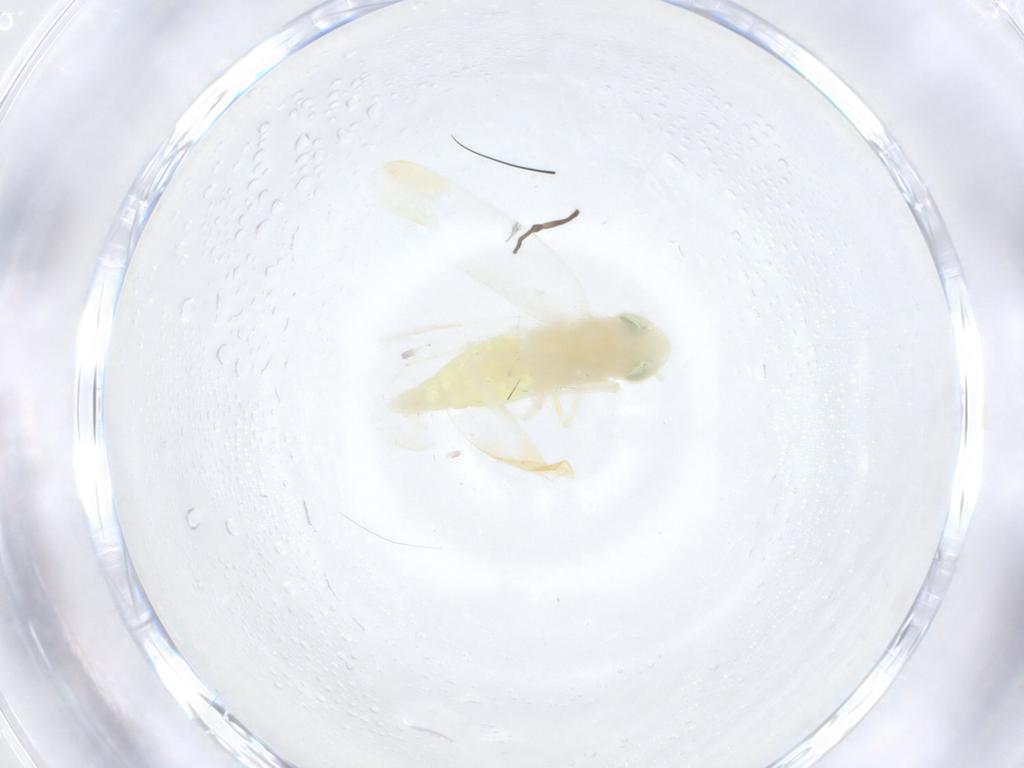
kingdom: Animalia
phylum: Arthropoda
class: Insecta
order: Hemiptera
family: Cicadellidae
